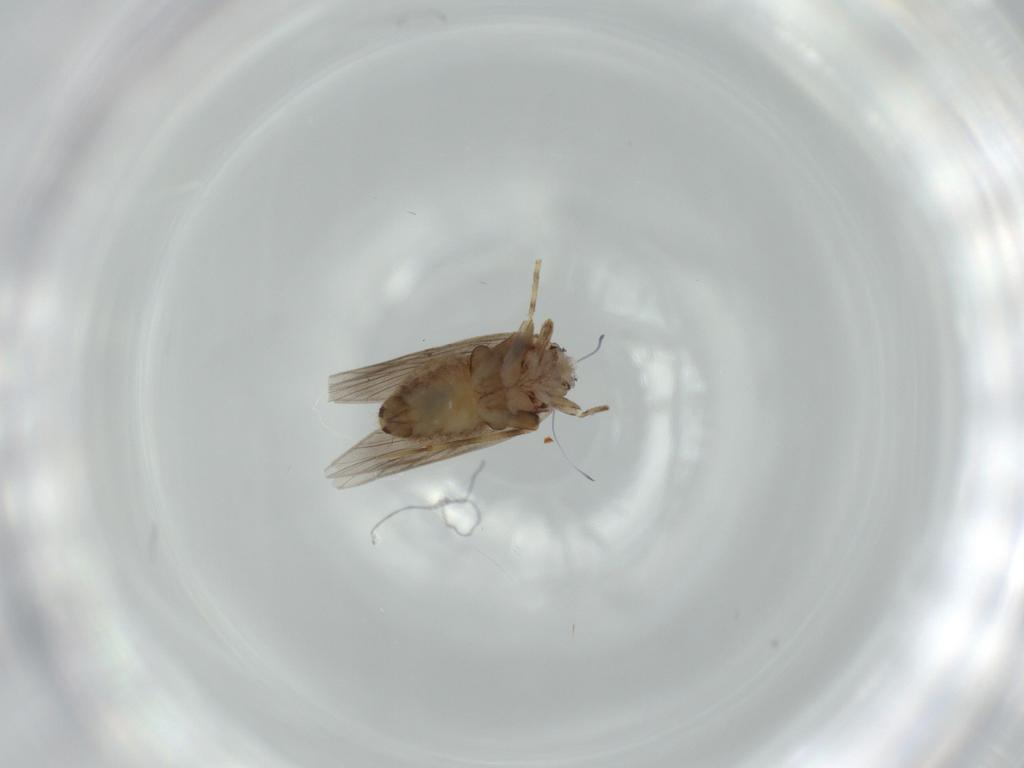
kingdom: Animalia
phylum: Arthropoda
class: Insecta
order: Psocodea
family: Lepidopsocidae
